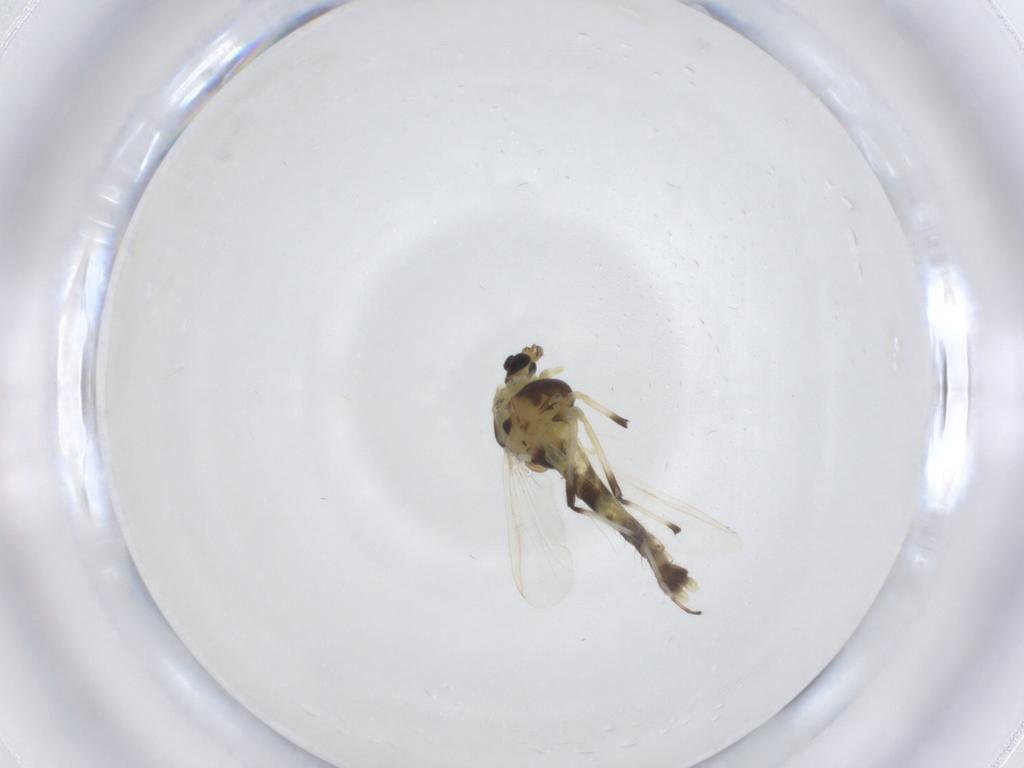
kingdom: Animalia
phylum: Arthropoda
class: Insecta
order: Diptera
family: Chironomidae
